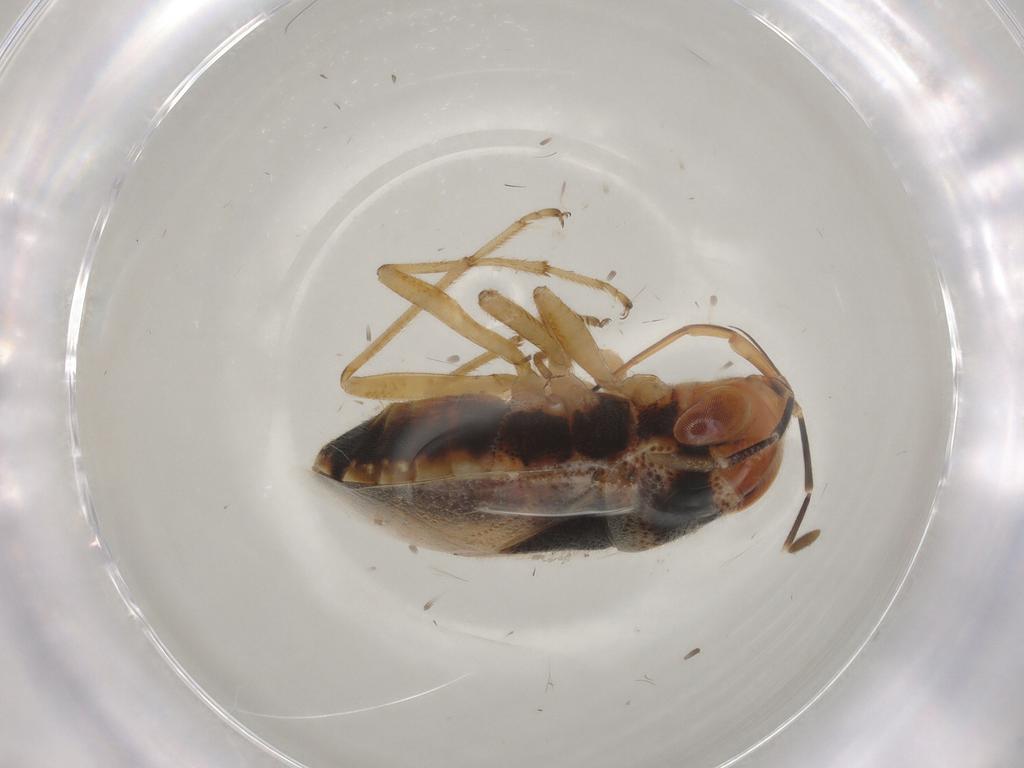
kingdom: Animalia
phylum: Arthropoda
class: Insecta
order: Hemiptera
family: Geocoridae
